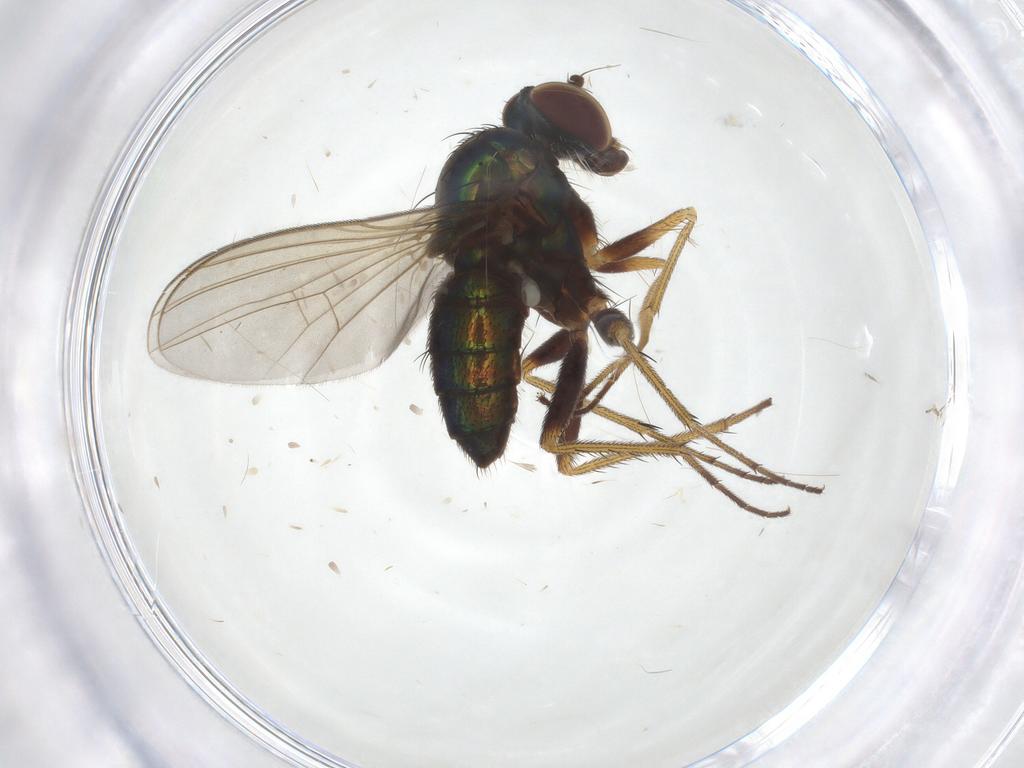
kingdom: Animalia
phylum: Arthropoda
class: Insecta
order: Diptera
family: Dolichopodidae
